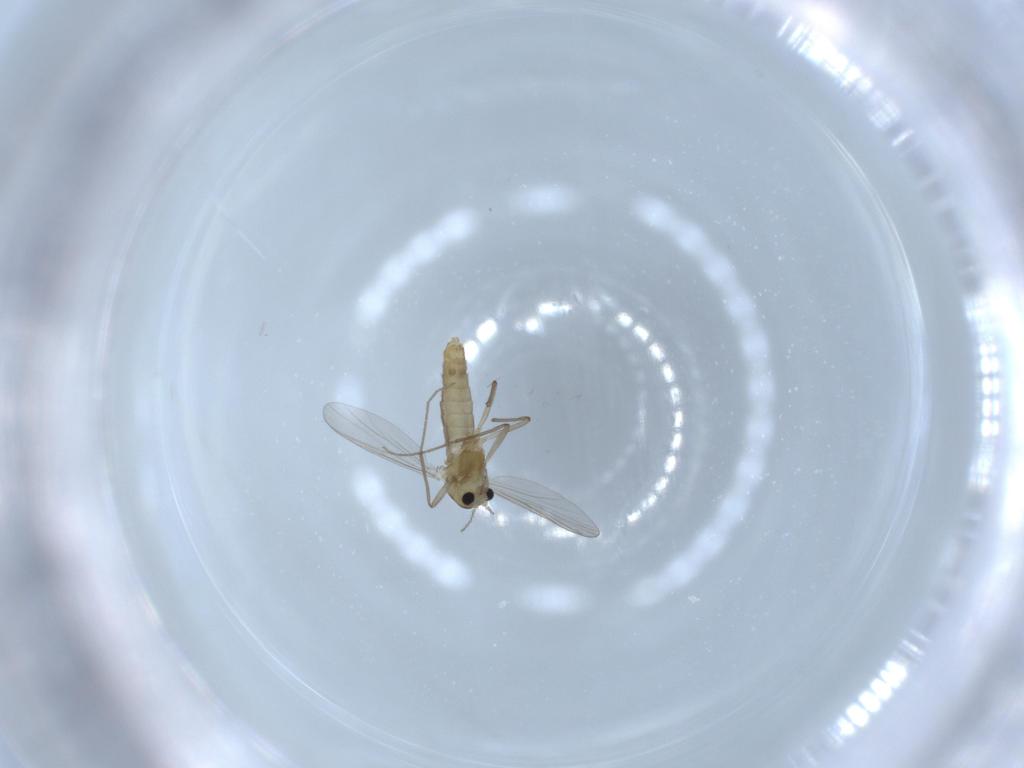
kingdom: Animalia
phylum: Arthropoda
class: Insecta
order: Diptera
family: Chironomidae
